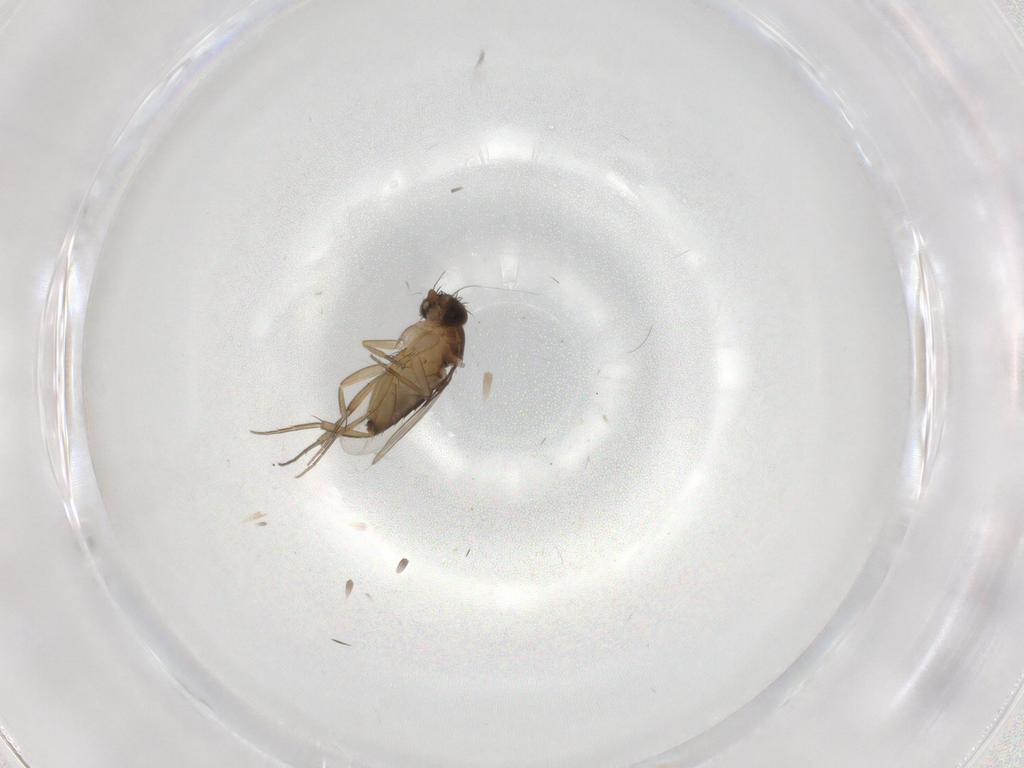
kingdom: Animalia
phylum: Arthropoda
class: Insecta
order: Diptera
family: Phoridae
